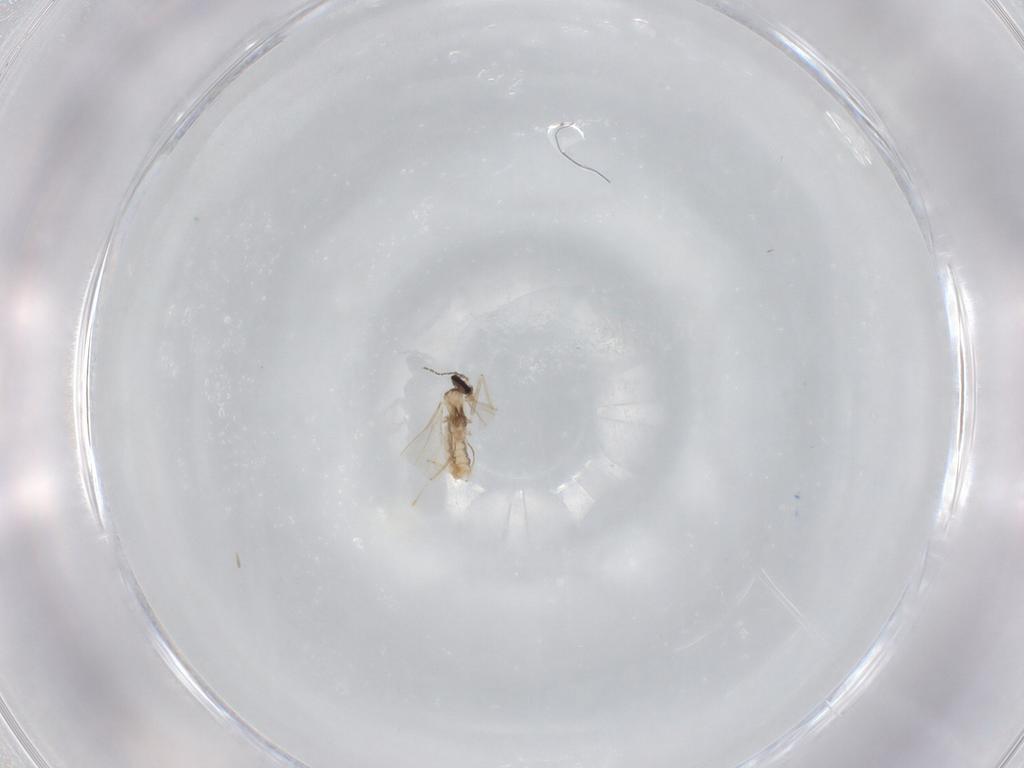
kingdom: Animalia
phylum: Arthropoda
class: Insecta
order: Diptera
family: Cecidomyiidae
